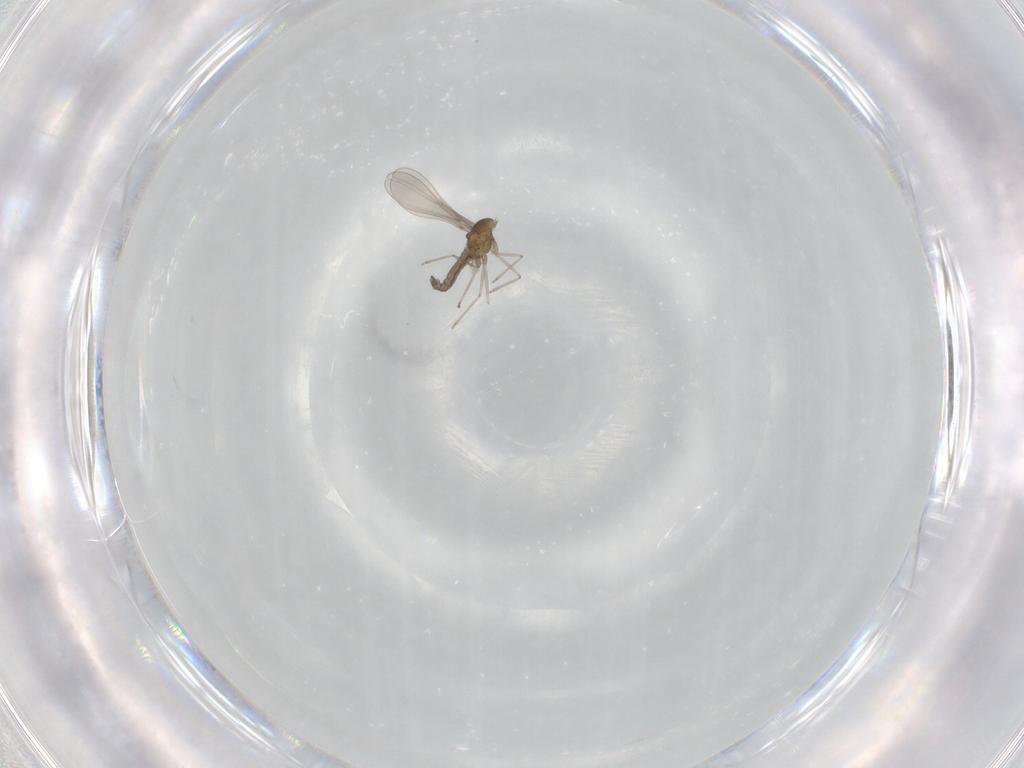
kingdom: Animalia
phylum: Arthropoda
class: Insecta
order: Diptera
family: Cecidomyiidae
